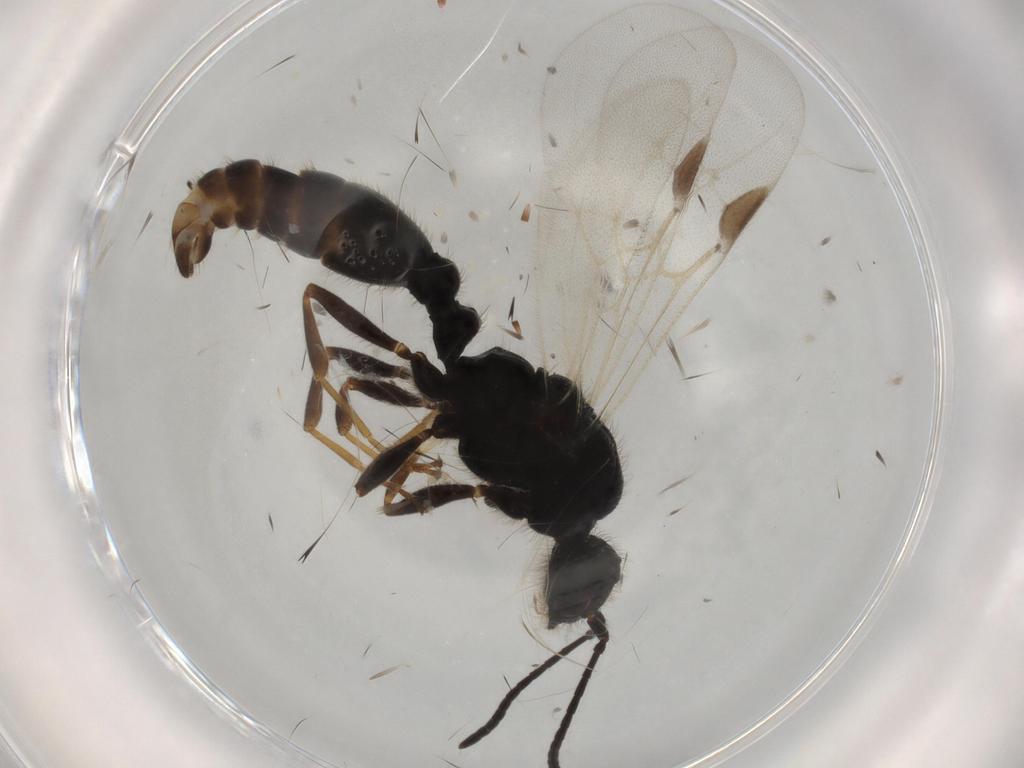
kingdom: Animalia
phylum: Arthropoda
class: Insecta
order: Hymenoptera
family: Formicidae
